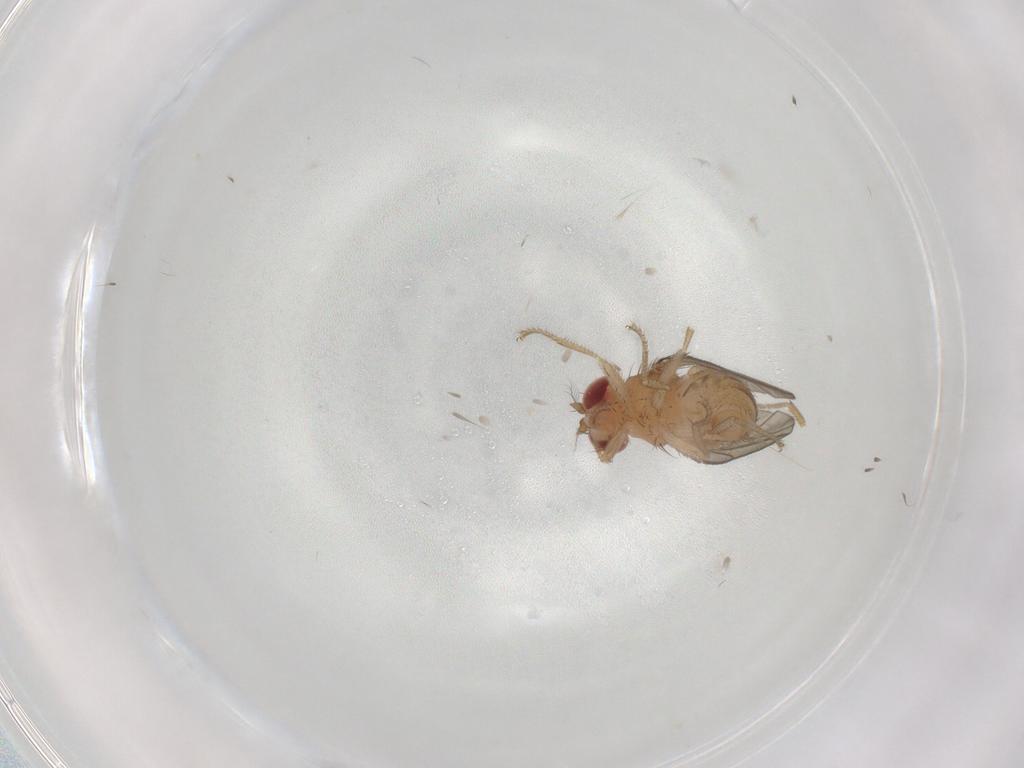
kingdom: Animalia
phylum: Arthropoda
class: Insecta
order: Diptera
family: Drosophilidae
